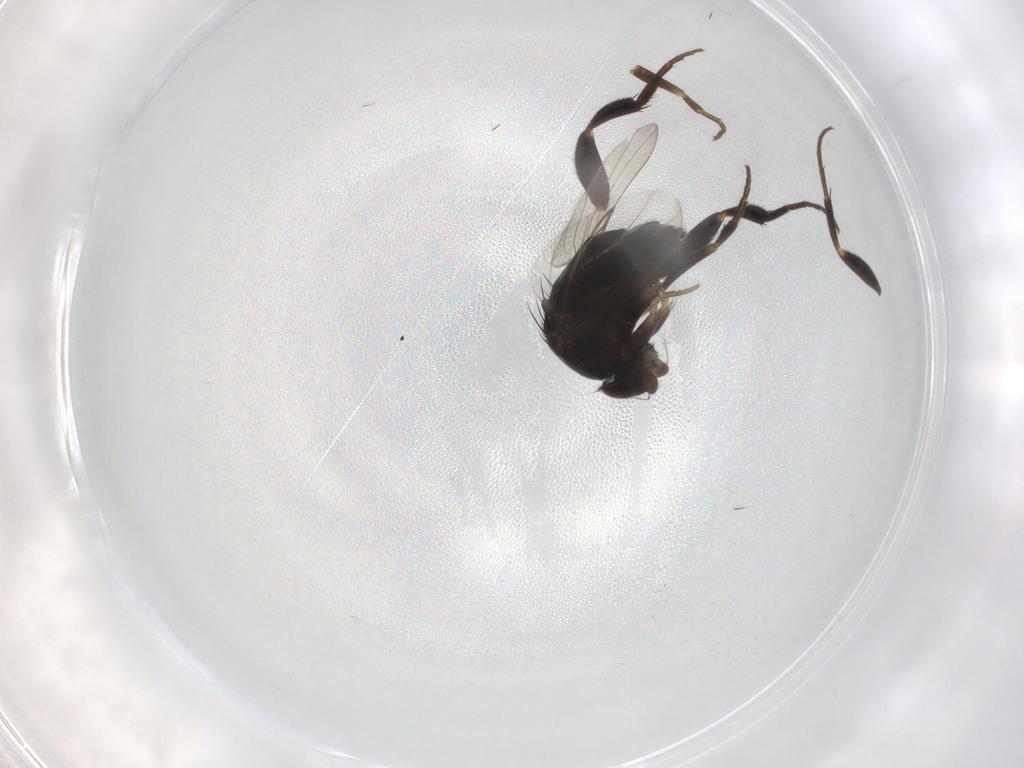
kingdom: Animalia
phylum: Arthropoda
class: Insecta
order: Diptera
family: Phoridae
